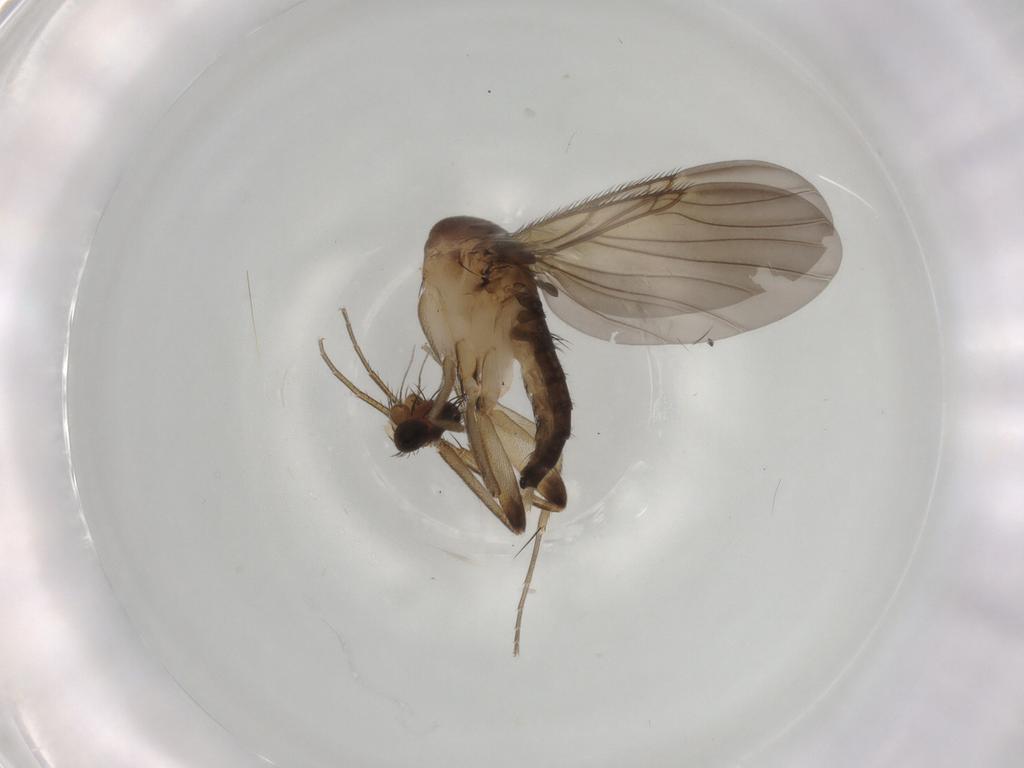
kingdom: Animalia
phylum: Arthropoda
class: Insecta
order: Diptera
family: Phoridae
